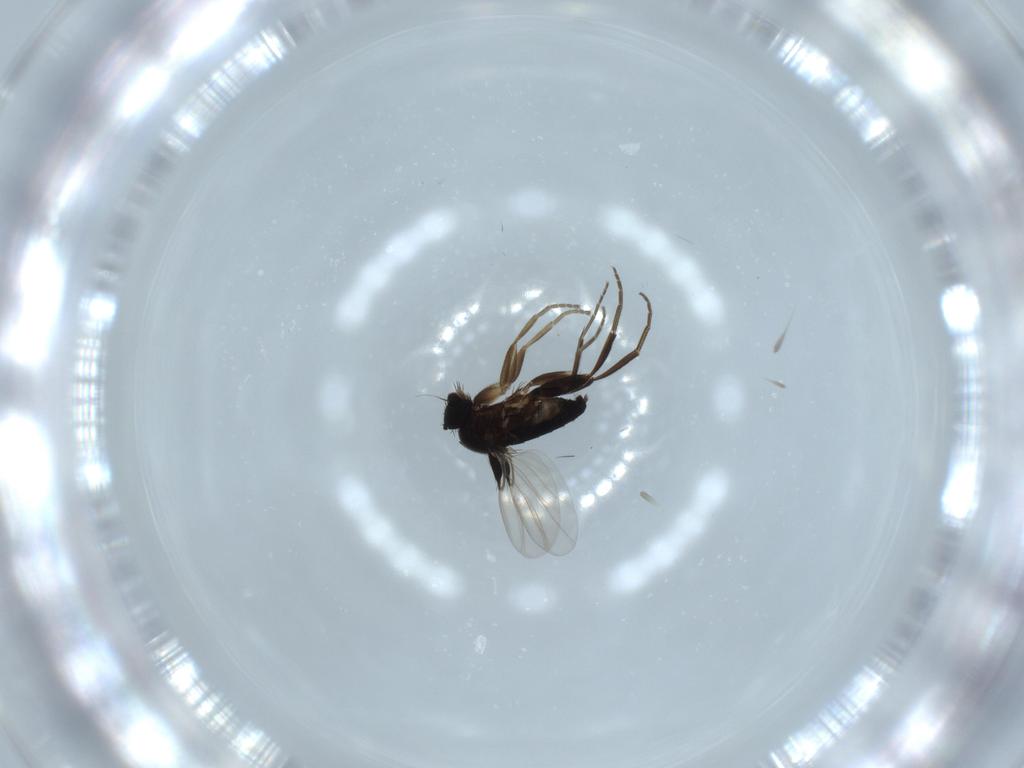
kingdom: Animalia
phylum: Arthropoda
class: Insecta
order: Diptera
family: Phoridae
